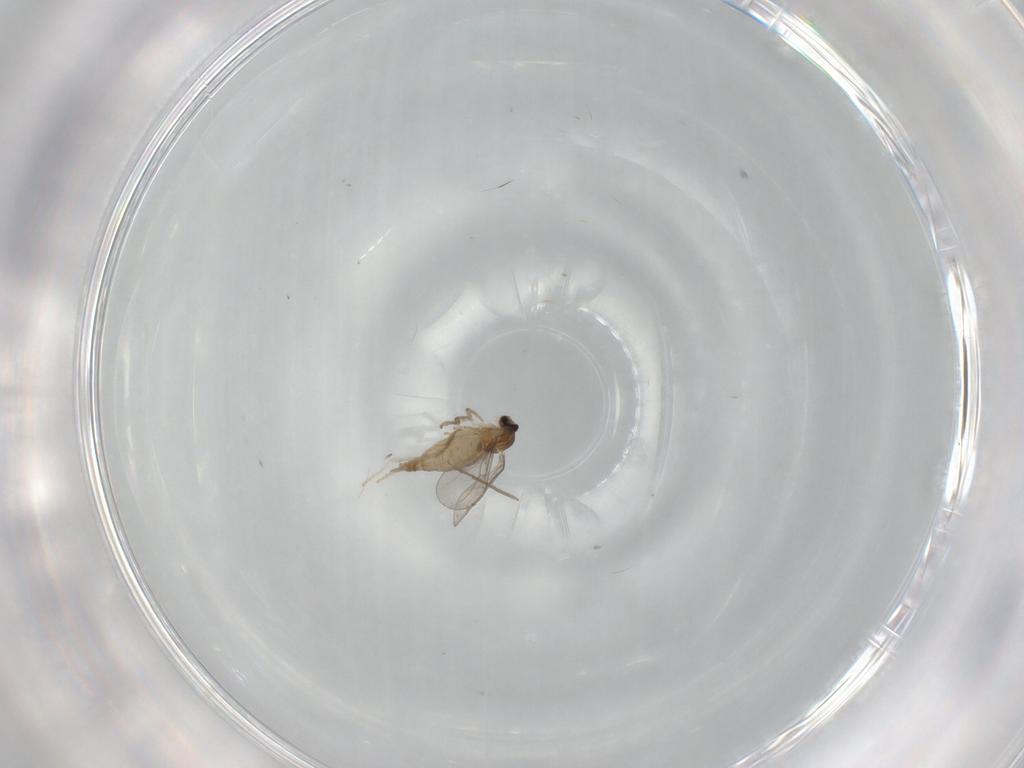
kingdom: Animalia
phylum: Arthropoda
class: Insecta
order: Diptera
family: Cecidomyiidae
